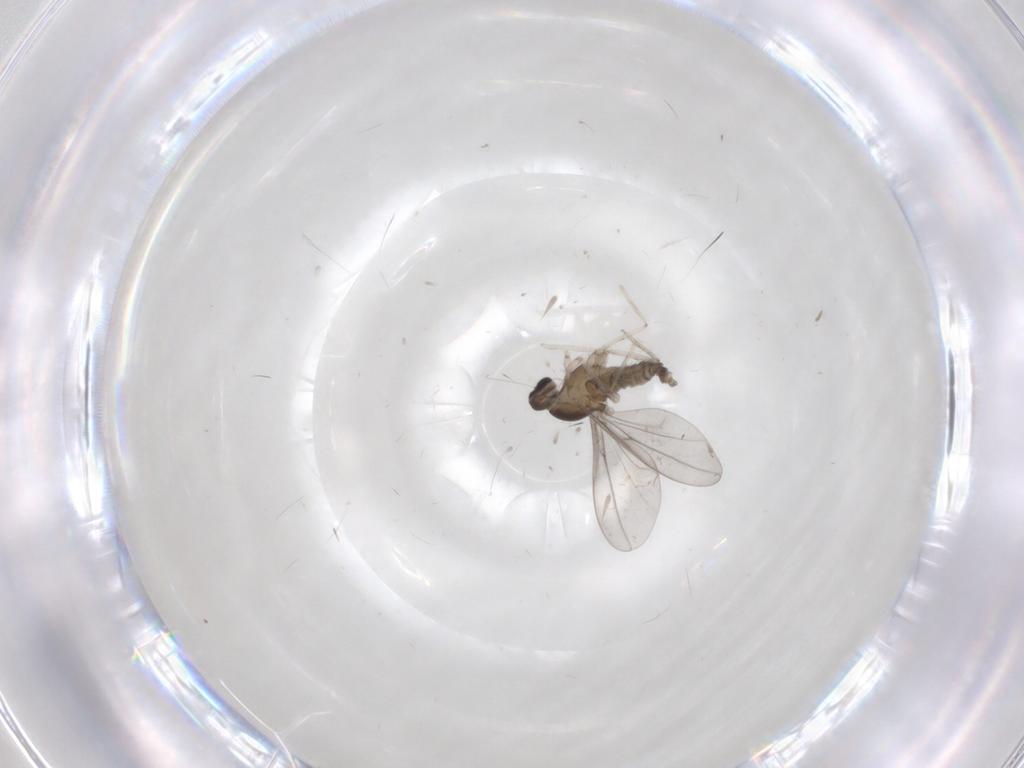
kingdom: Animalia
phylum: Arthropoda
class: Insecta
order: Diptera
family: Cecidomyiidae
